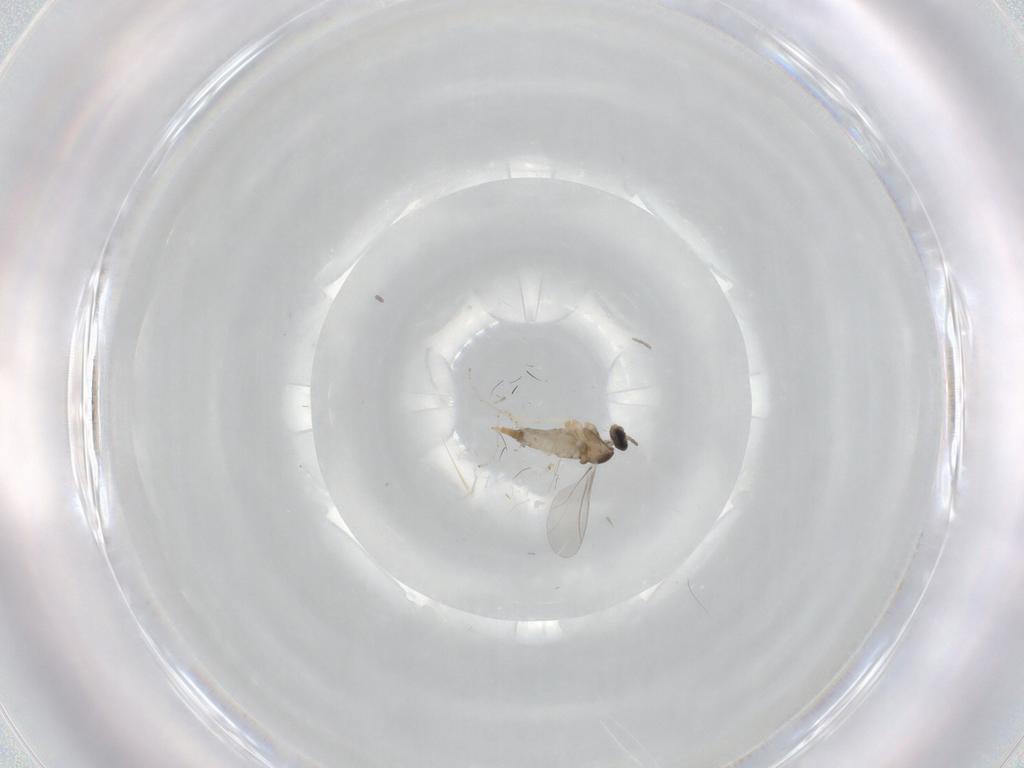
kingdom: Animalia
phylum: Arthropoda
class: Insecta
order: Diptera
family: Cecidomyiidae
